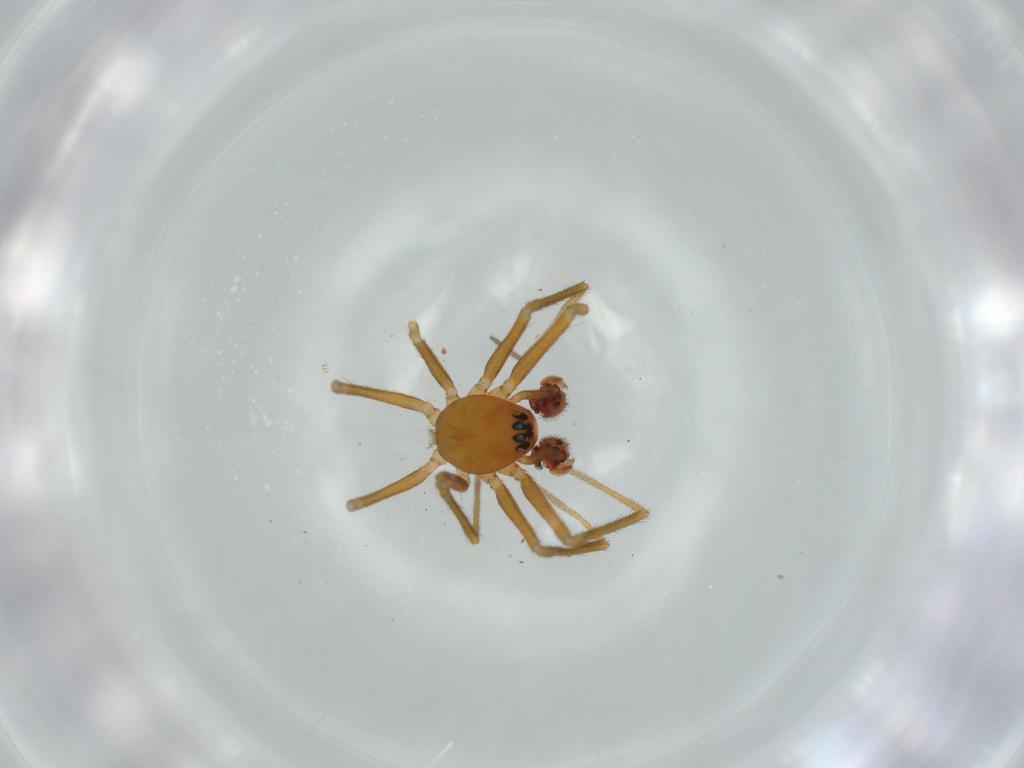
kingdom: Animalia
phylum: Arthropoda
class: Arachnida
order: Araneae
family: Linyphiidae
